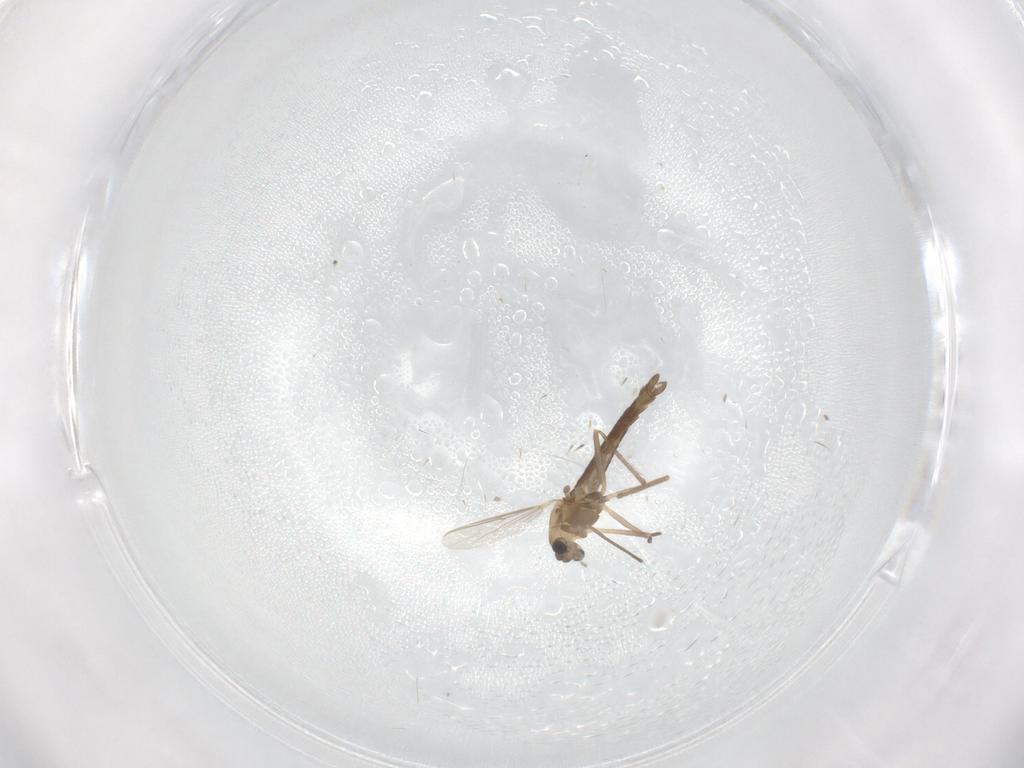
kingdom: Animalia
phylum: Arthropoda
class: Insecta
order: Diptera
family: Chironomidae
